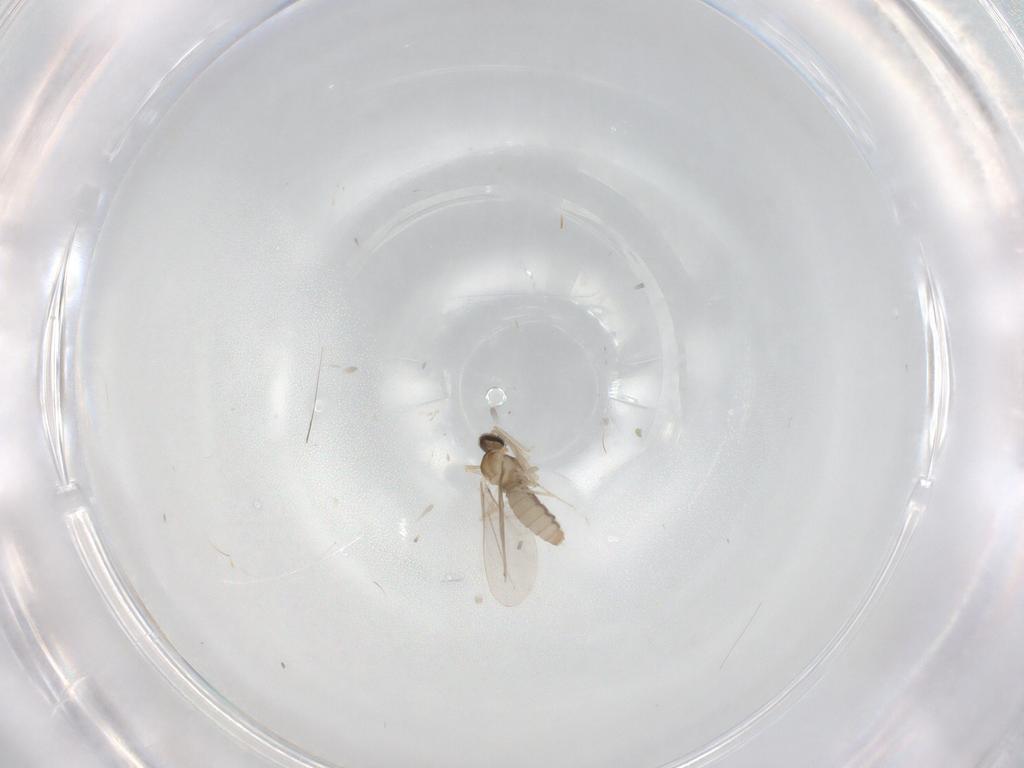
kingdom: Animalia
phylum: Arthropoda
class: Insecta
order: Diptera
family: Cecidomyiidae
